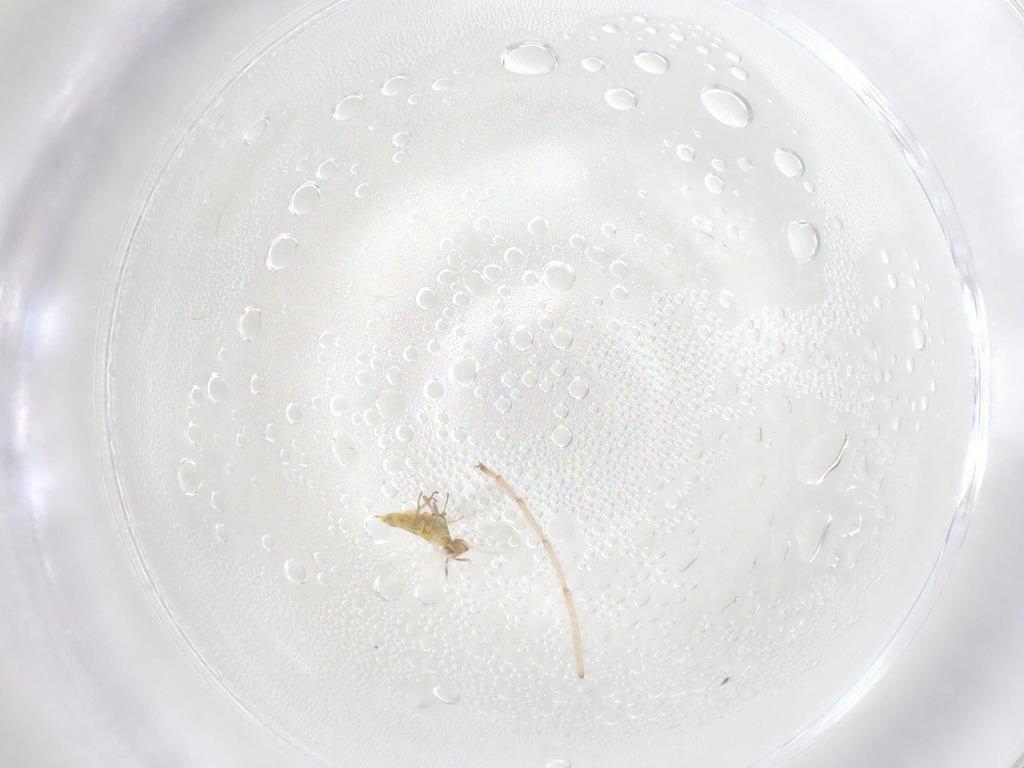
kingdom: Animalia
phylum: Arthropoda
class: Insecta
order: Hymenoptera
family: Aphelinidae
